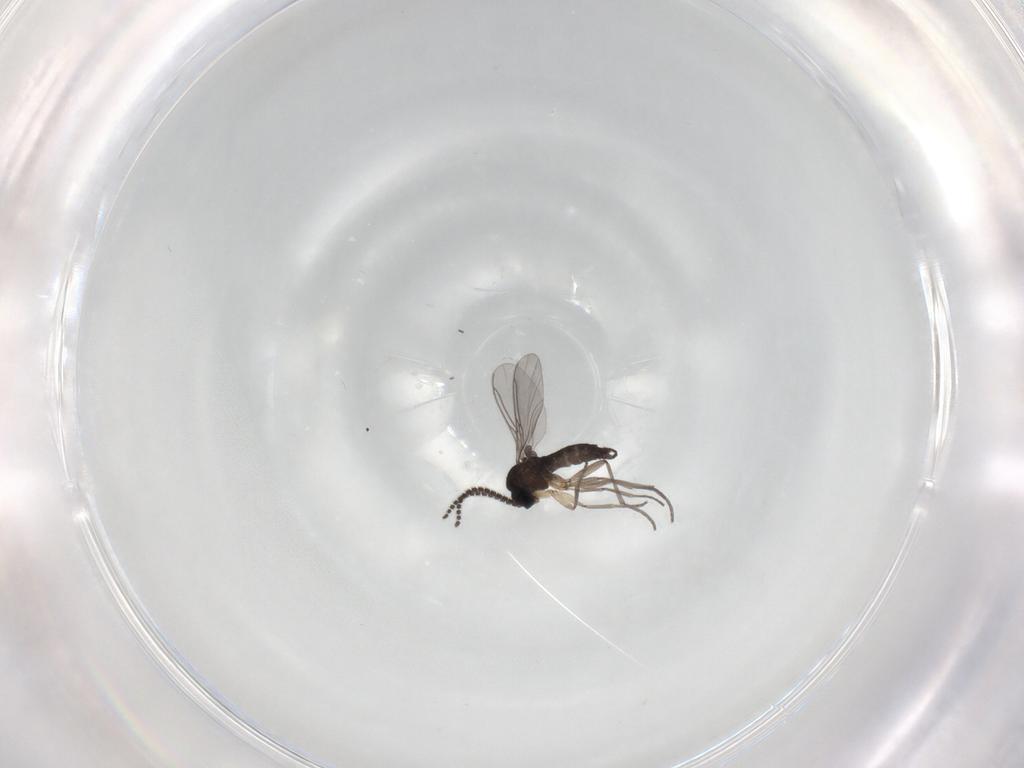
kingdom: Animalia
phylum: Arthropoda
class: Insecta
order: Diptera
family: Sciaridae
